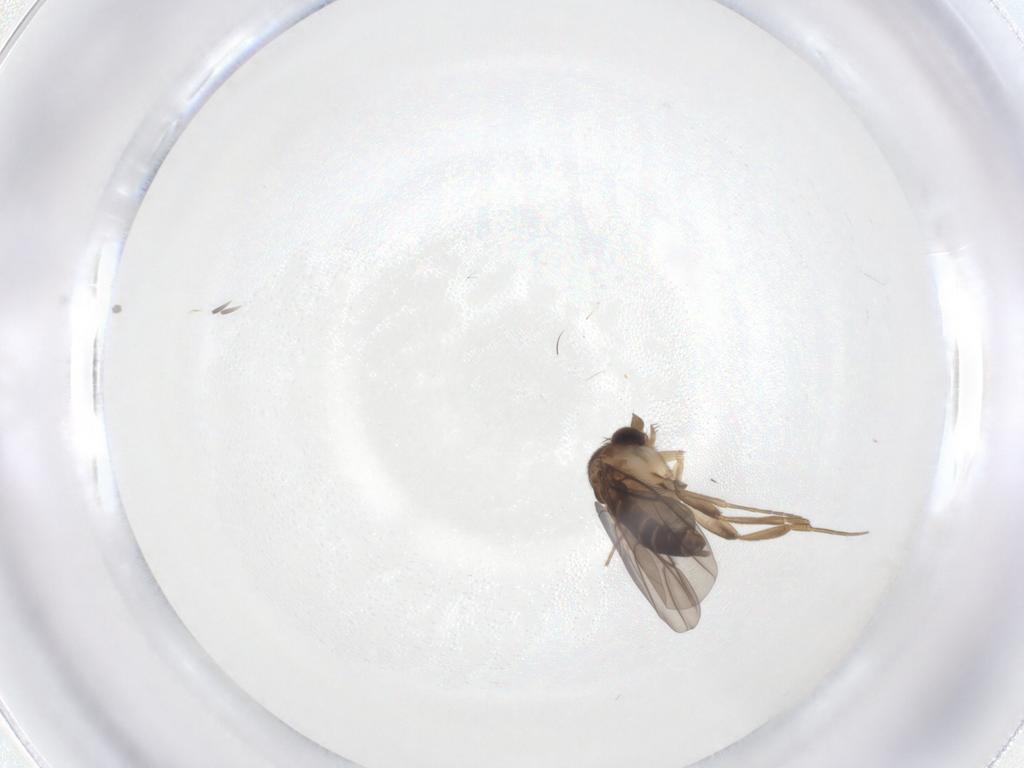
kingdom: Animalia
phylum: Arthropoda
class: Insecta
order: Diptera
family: Phoridae
